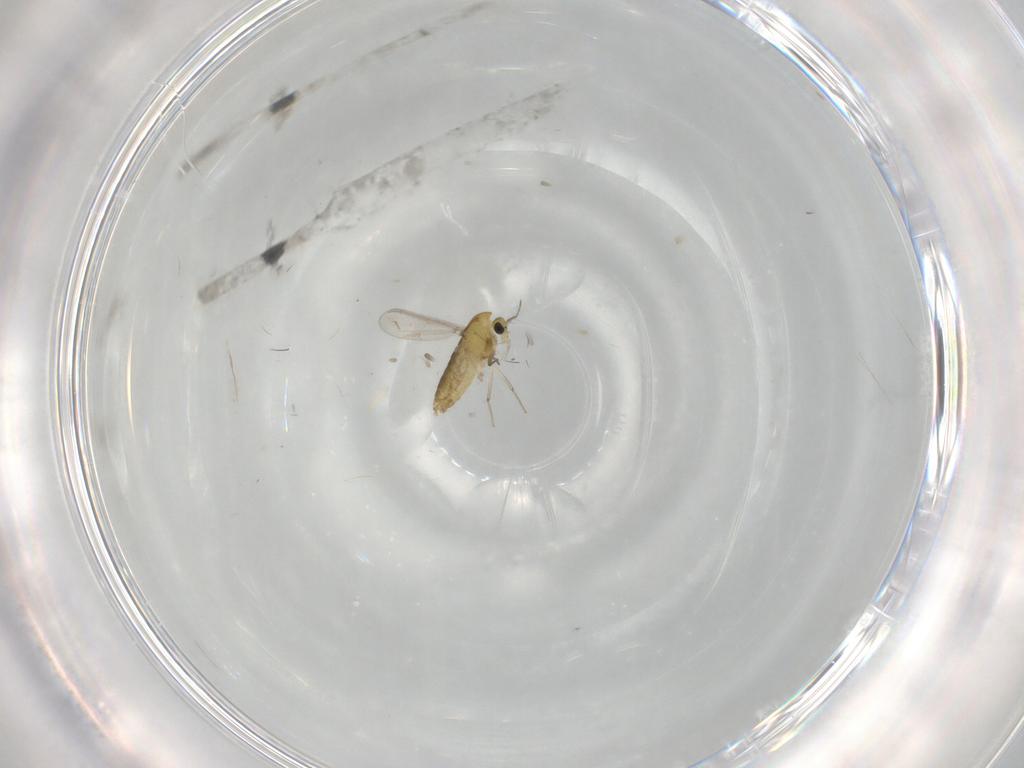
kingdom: Animalia
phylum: Arthropoda
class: Insecta
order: Diptera
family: Chironomidae
